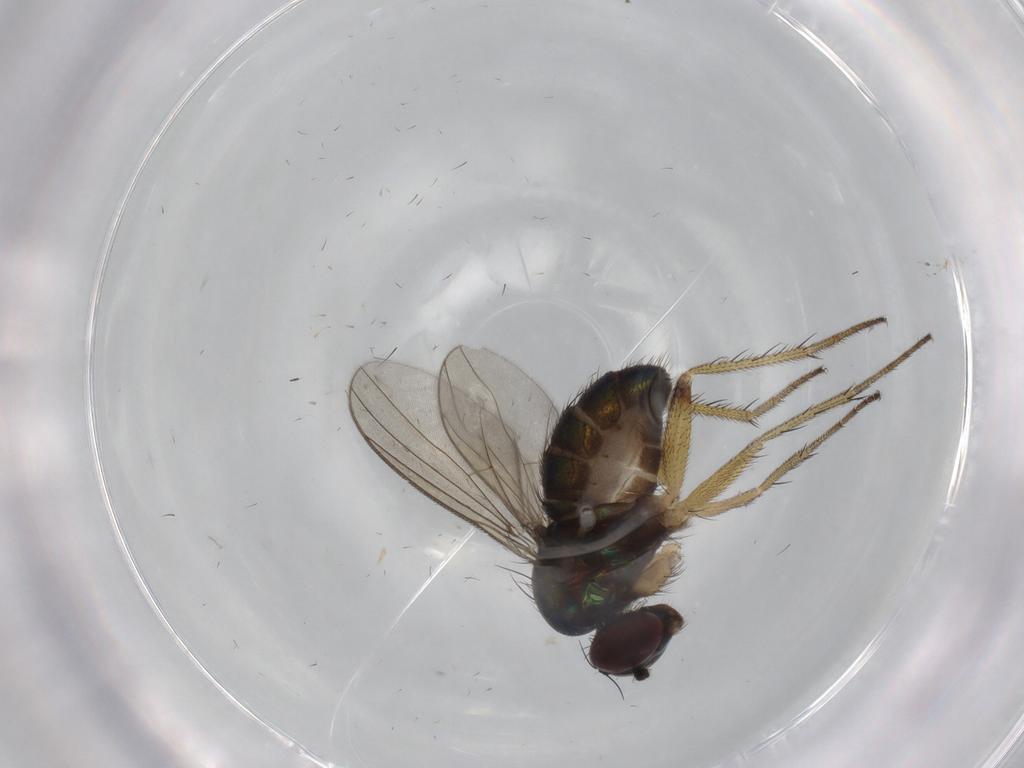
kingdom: Animalia
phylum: Arthropoda
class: Insecta
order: Diptera
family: Dolichopodidae
